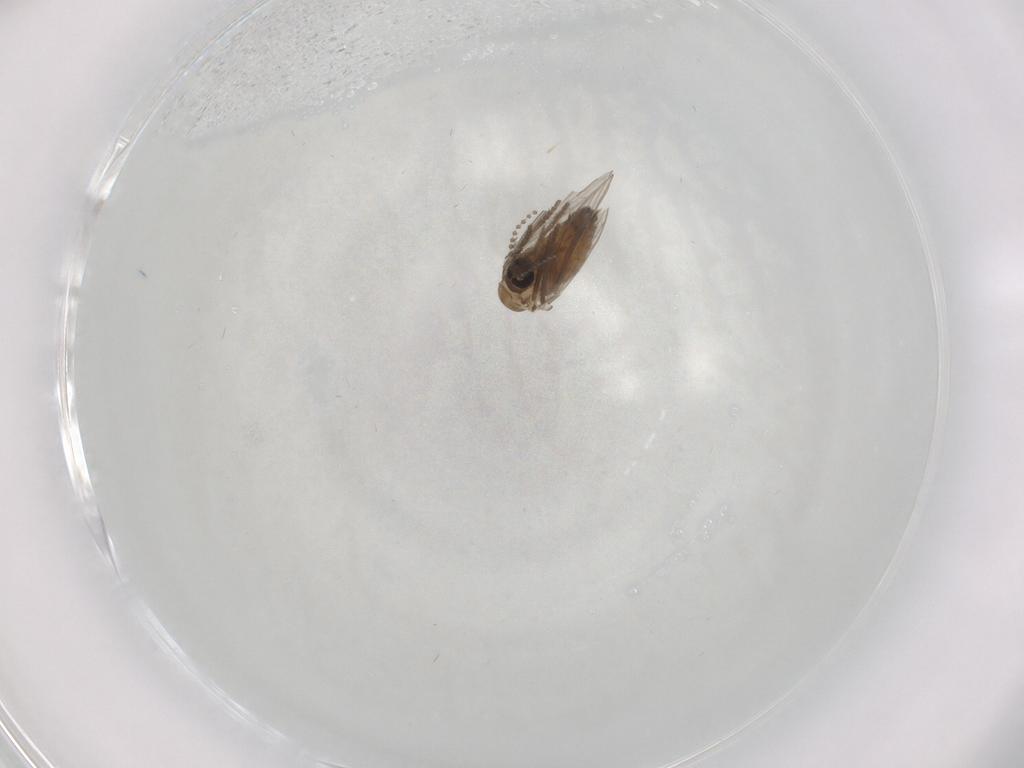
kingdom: Animalia
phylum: Arthropoda
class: Insecta
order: Diptera
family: Psychodidae
